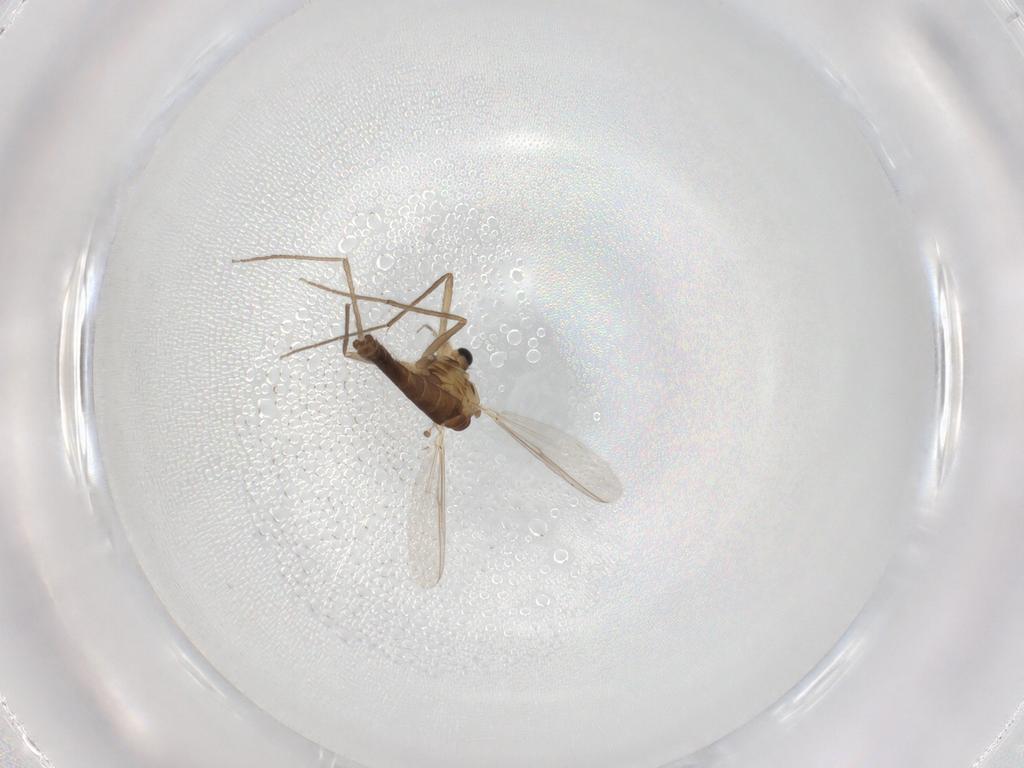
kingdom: Animalia
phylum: Arthropoda
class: Insecta
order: Diptera
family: Chironomidae
